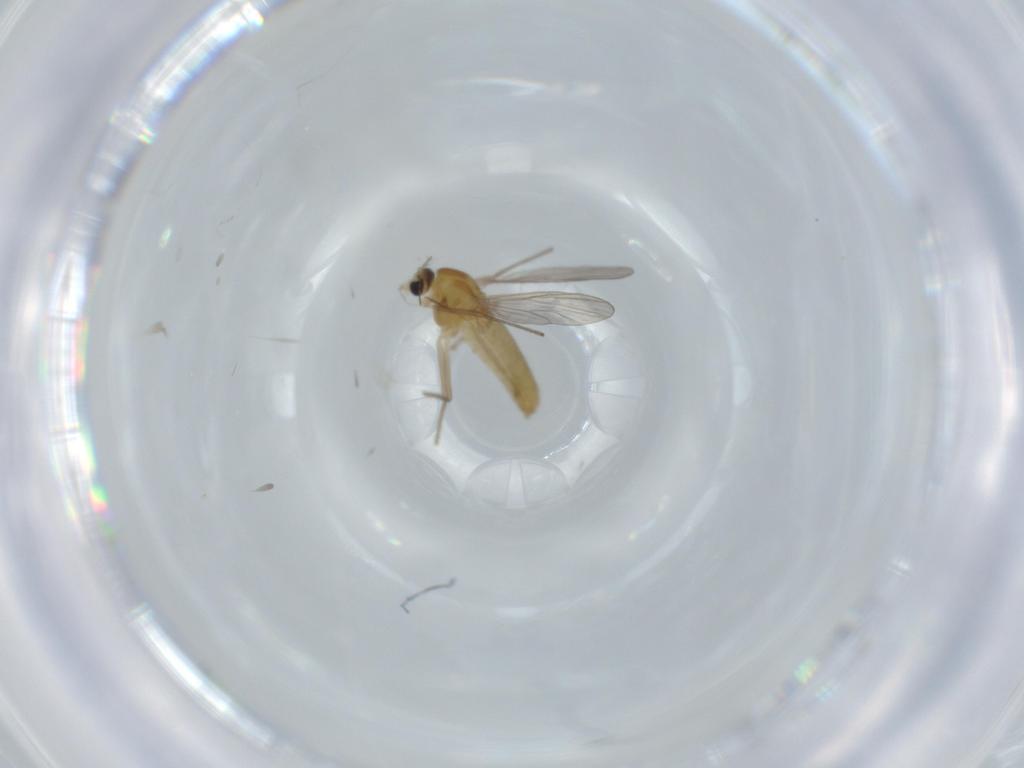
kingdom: Animalia
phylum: Arthropoda
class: Insecta
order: Diptera
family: Chironomidae
